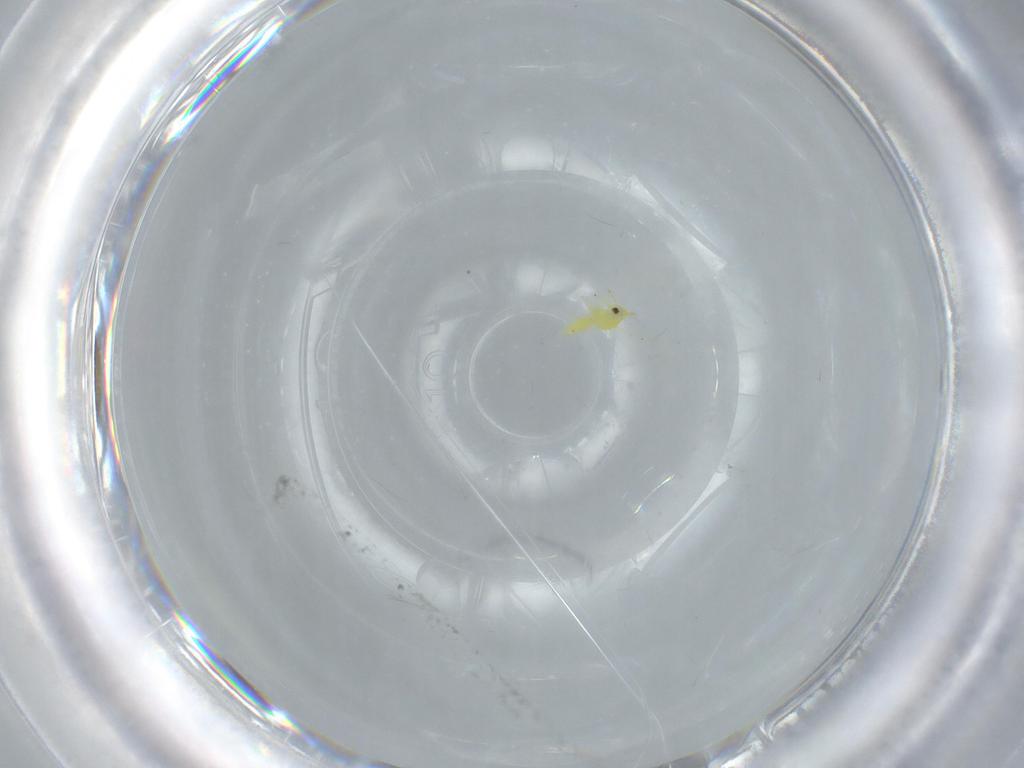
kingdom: Animalia
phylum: Arthropoda
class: Insecta
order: Hemiptera
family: Aleyrodidae
